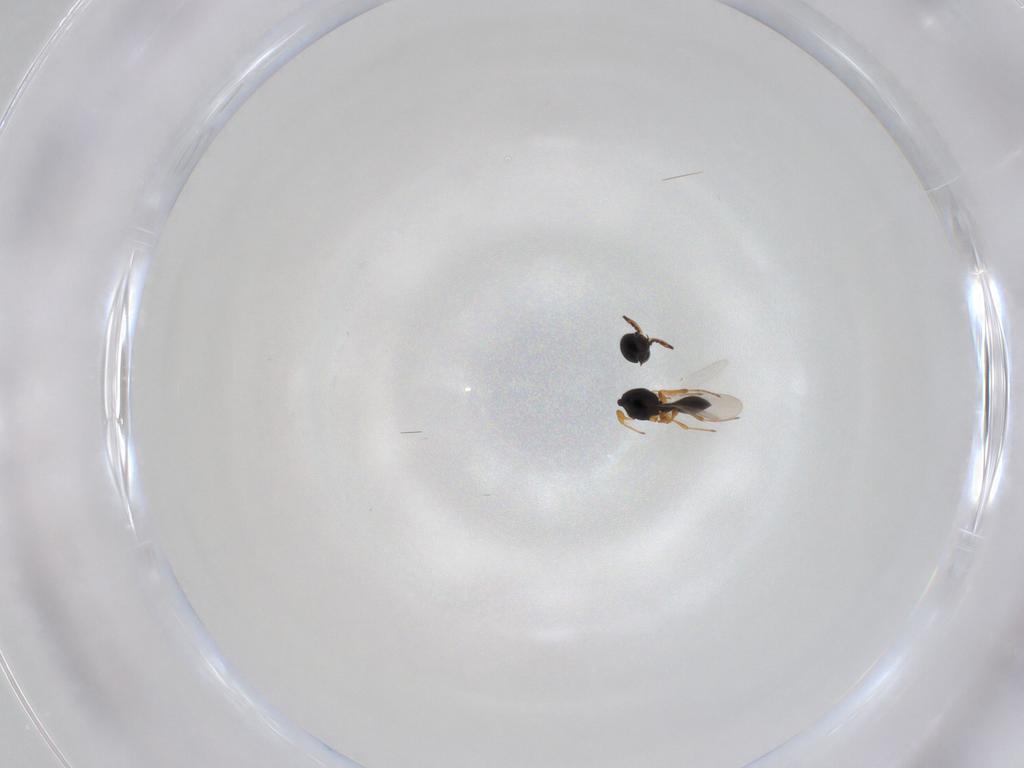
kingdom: Animalia
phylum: Arthropoda
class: Insecta
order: Hymenoptera
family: Platygastridae
